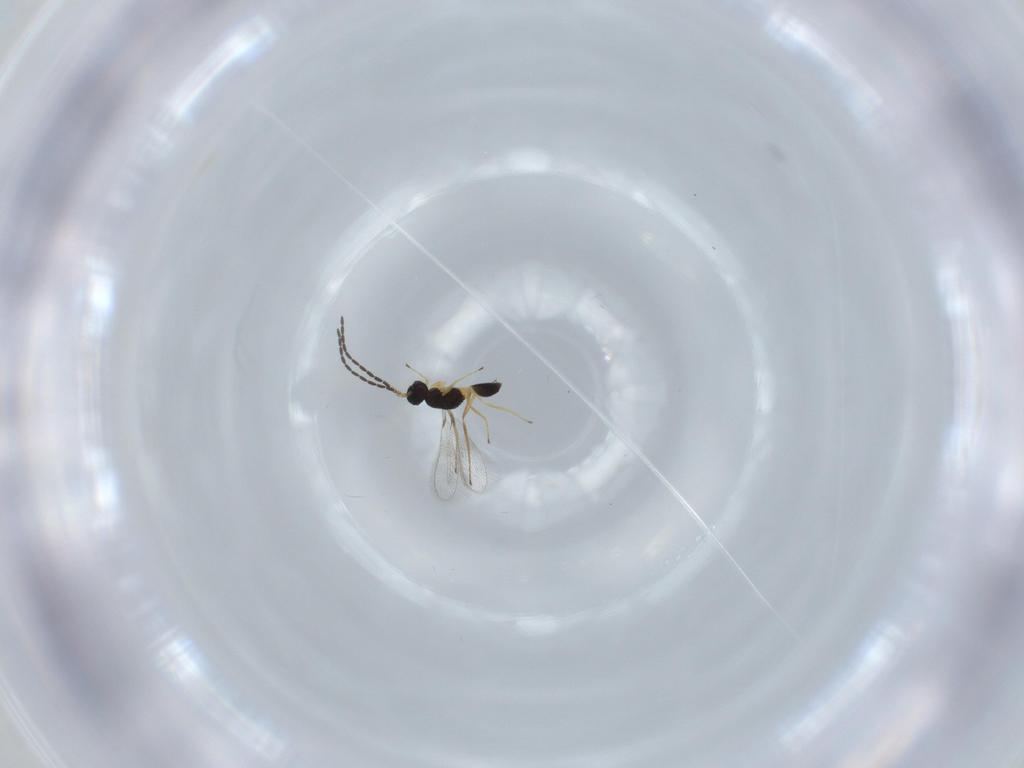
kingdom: Animalia
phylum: Arthropoda
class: Insecta
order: Hymenoptera
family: Mymaridae
